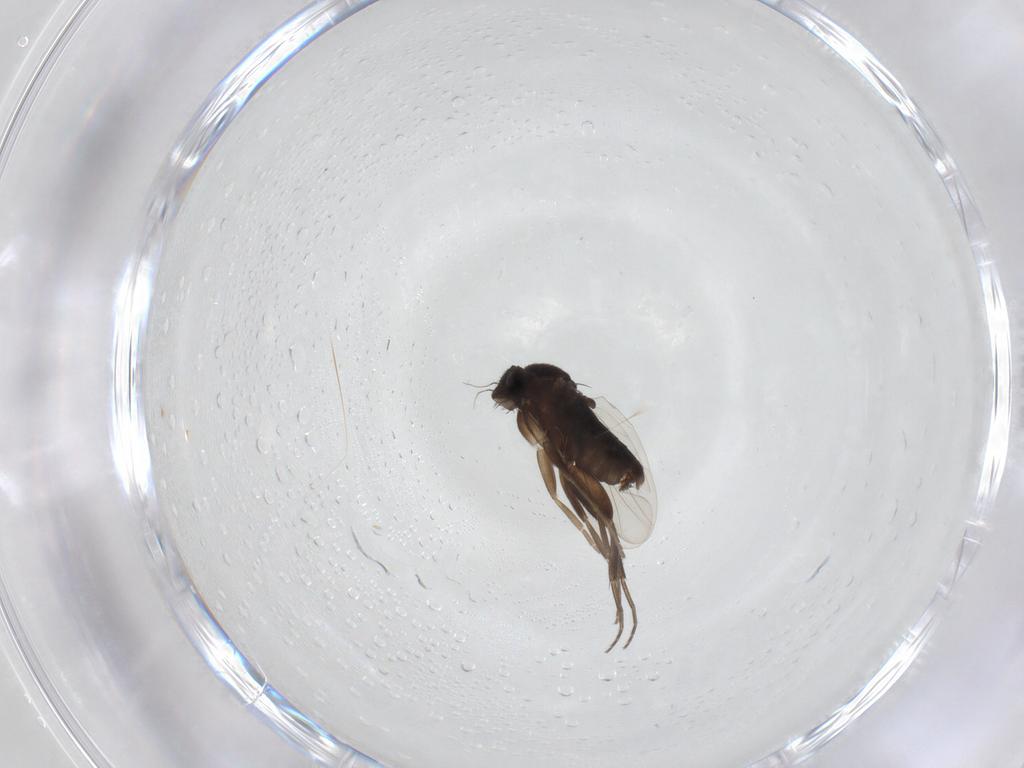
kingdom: Animalia
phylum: Arthropoda
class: Insecta
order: Diptera
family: Phoridae
